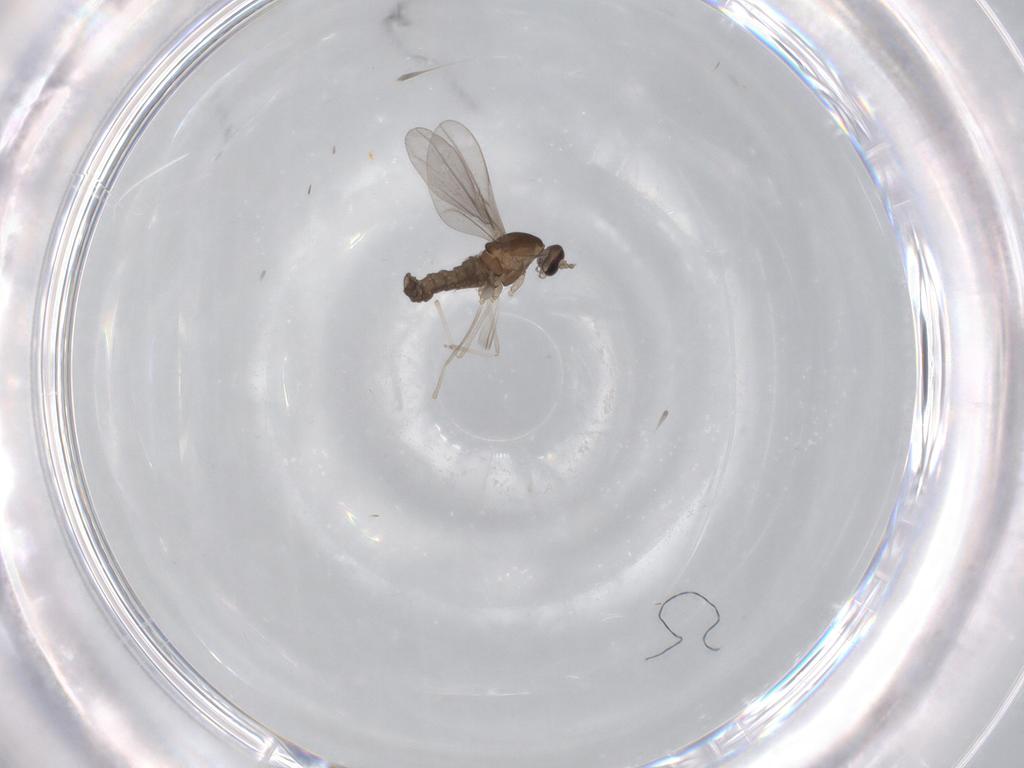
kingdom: Animalia
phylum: Arthropoda
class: Insecta
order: Diptera
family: Cecidomyiidae
